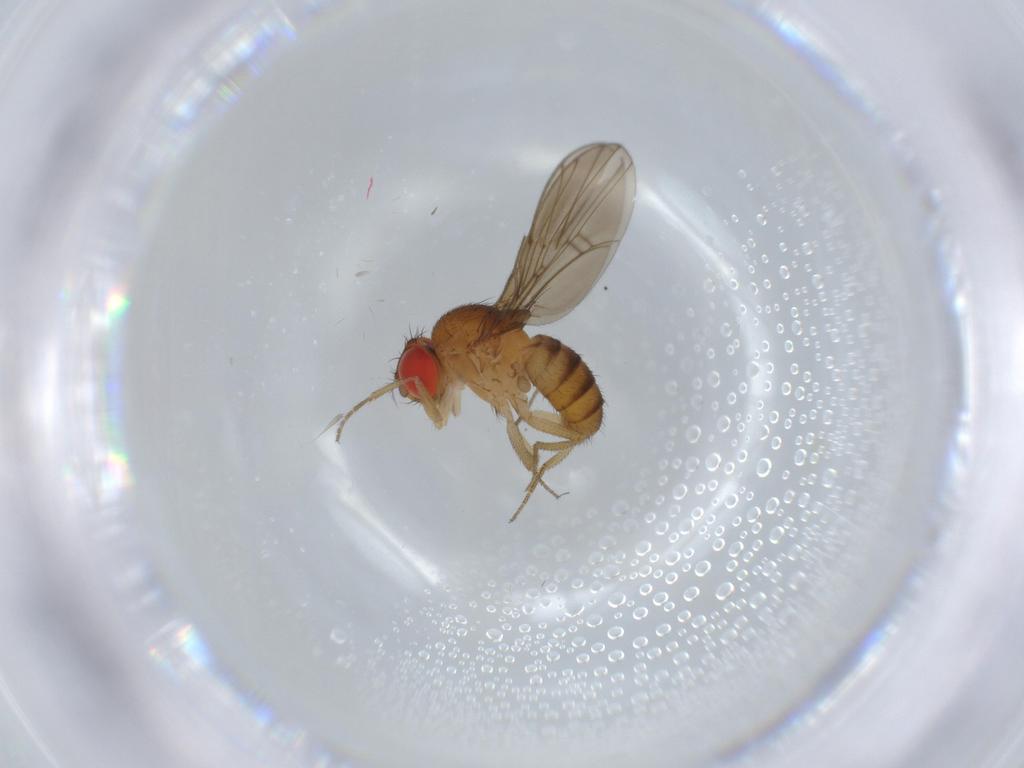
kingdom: Animalia
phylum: Arthropoda
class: Insecta
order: Diptera
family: Drosophilidae
